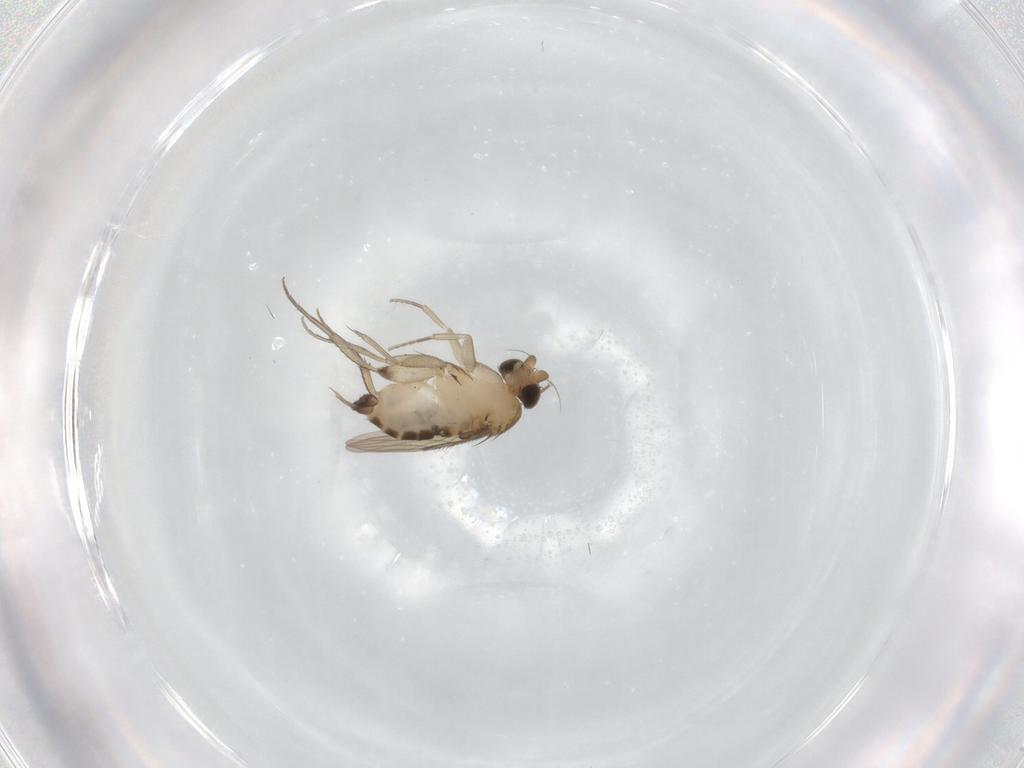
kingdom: Animalia
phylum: Arthropoda
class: Insecta
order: Diptera
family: Phoridae
